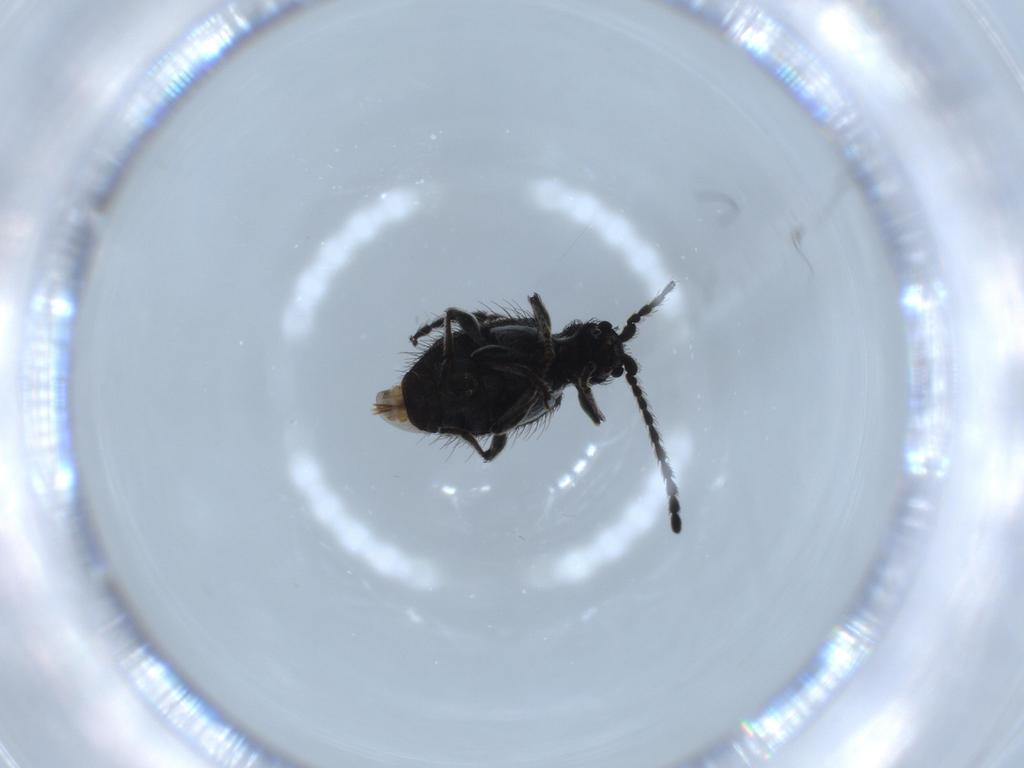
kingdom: Animalia
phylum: Arthropoda
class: Insecta
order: Coleoptera
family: Ptinidae
